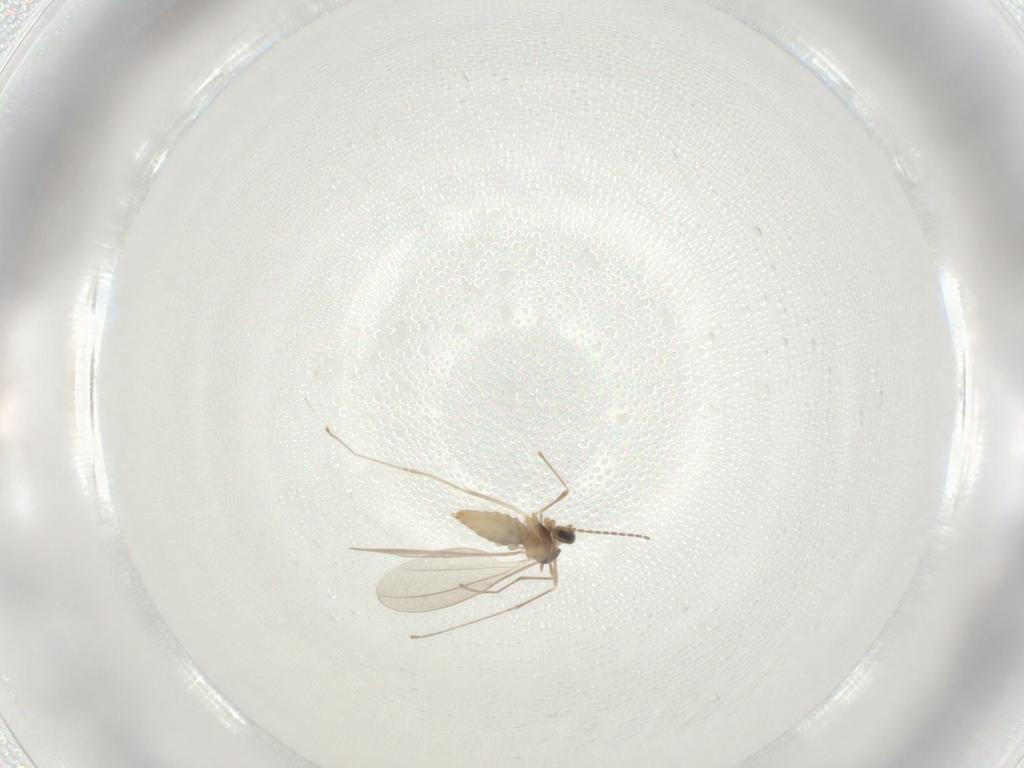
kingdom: Animalia
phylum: Arthropoda
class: Insecta
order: Diptera
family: Cecidomyiidae
